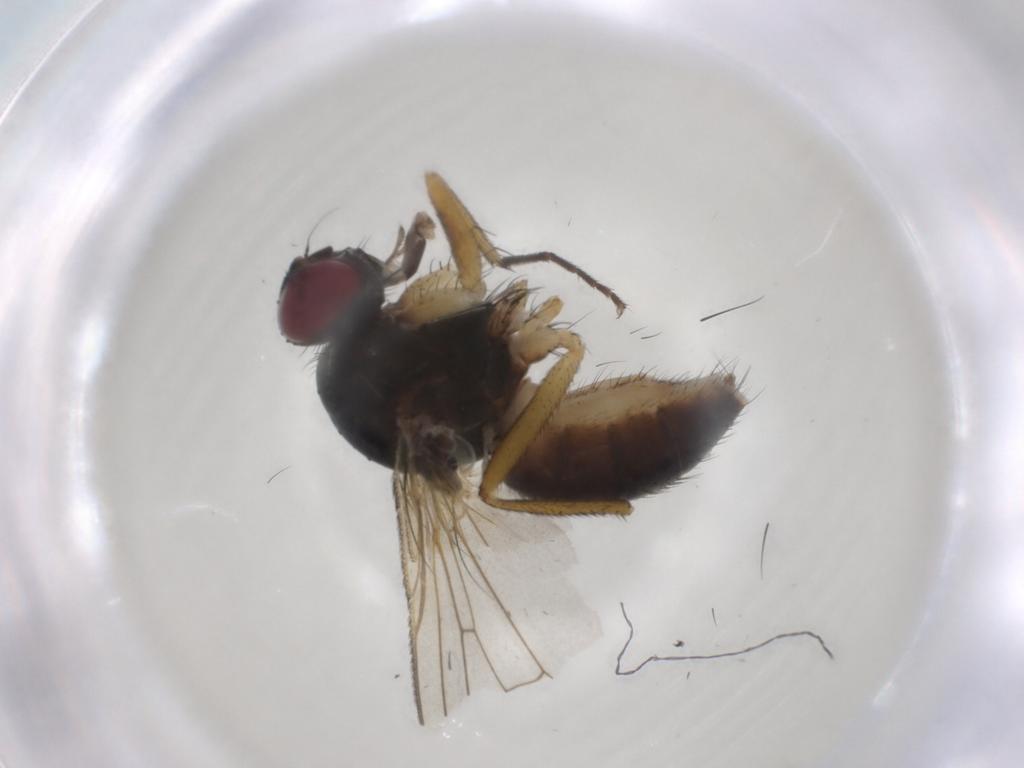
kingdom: Animalia
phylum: Arthropoda
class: Insecta
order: Diptera
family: Muscidae
